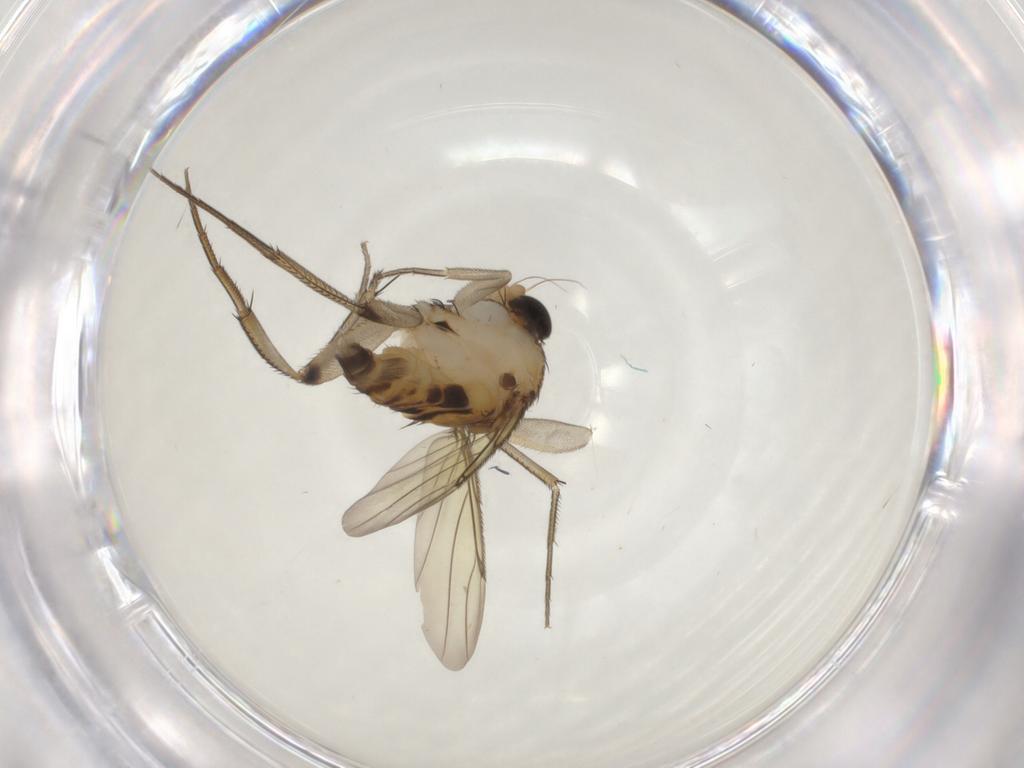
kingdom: Animalia
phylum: Arthropoda
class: Insecta
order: Diptera
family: Phoridae
